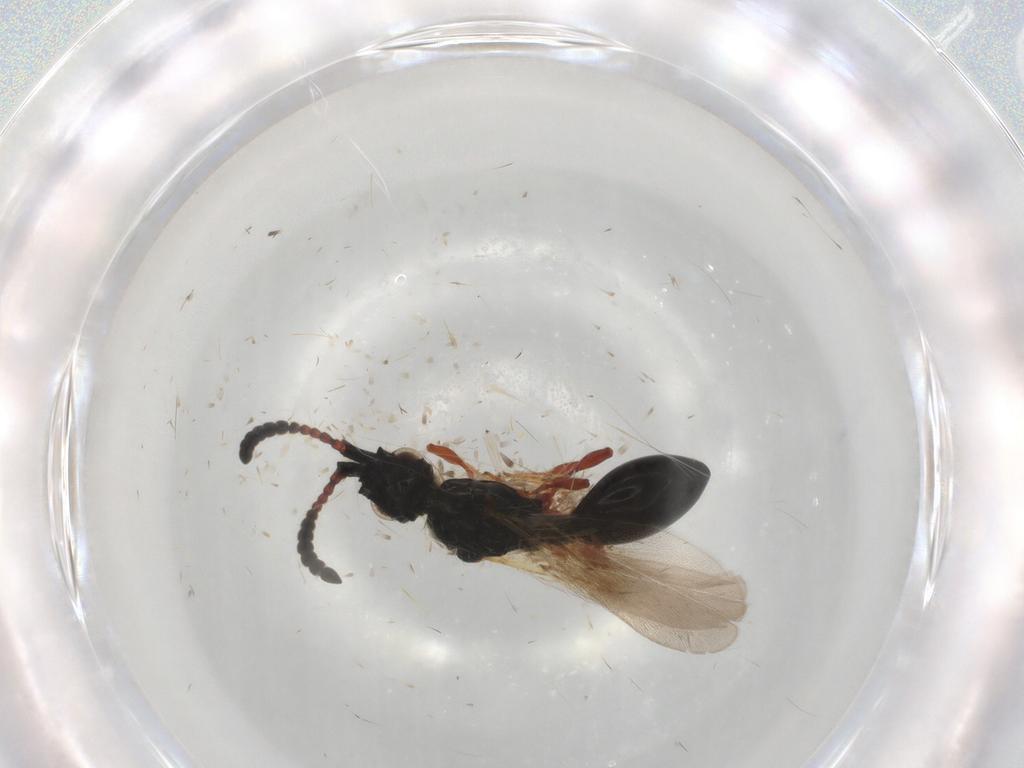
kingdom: Animalia
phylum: Arthropoda
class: Insecta
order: Hymenoptera
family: Diapriidae
